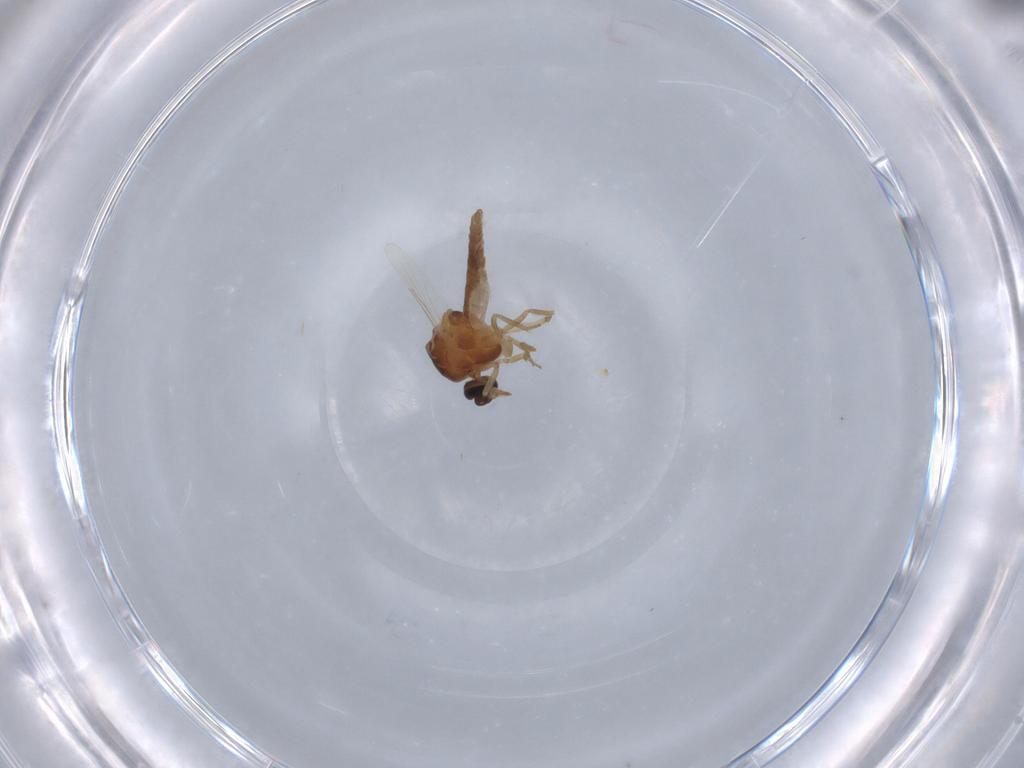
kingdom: Animalia
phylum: Arthropoda
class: Insecta
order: Diptera
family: Ceratopogonidae
